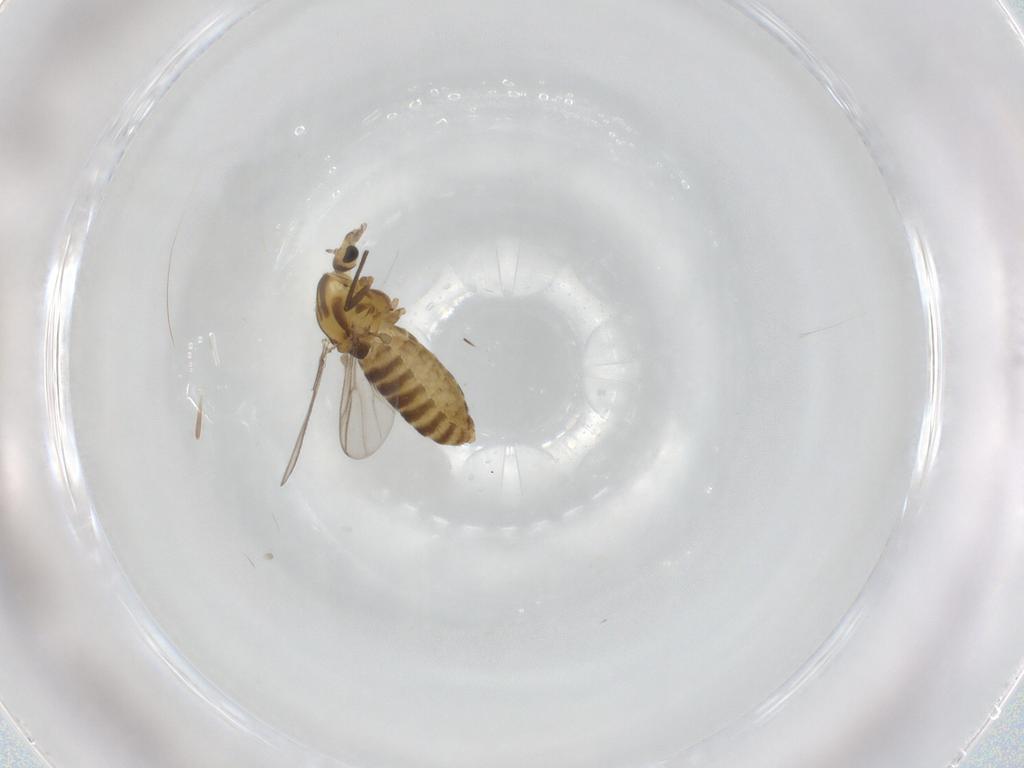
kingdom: Animalia
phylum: Arthropoda
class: Insecta
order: Diptera
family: Chironomidae
